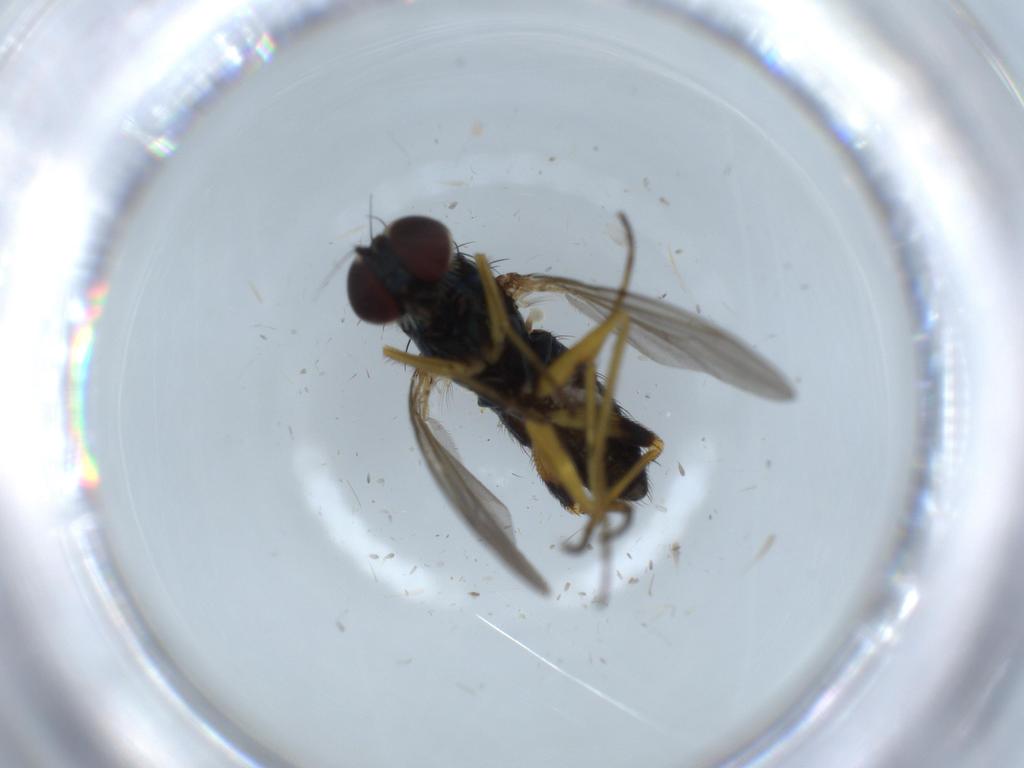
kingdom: Animalia
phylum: Arthropoda
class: Insecta
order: Diptera
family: Dolichopodidae
